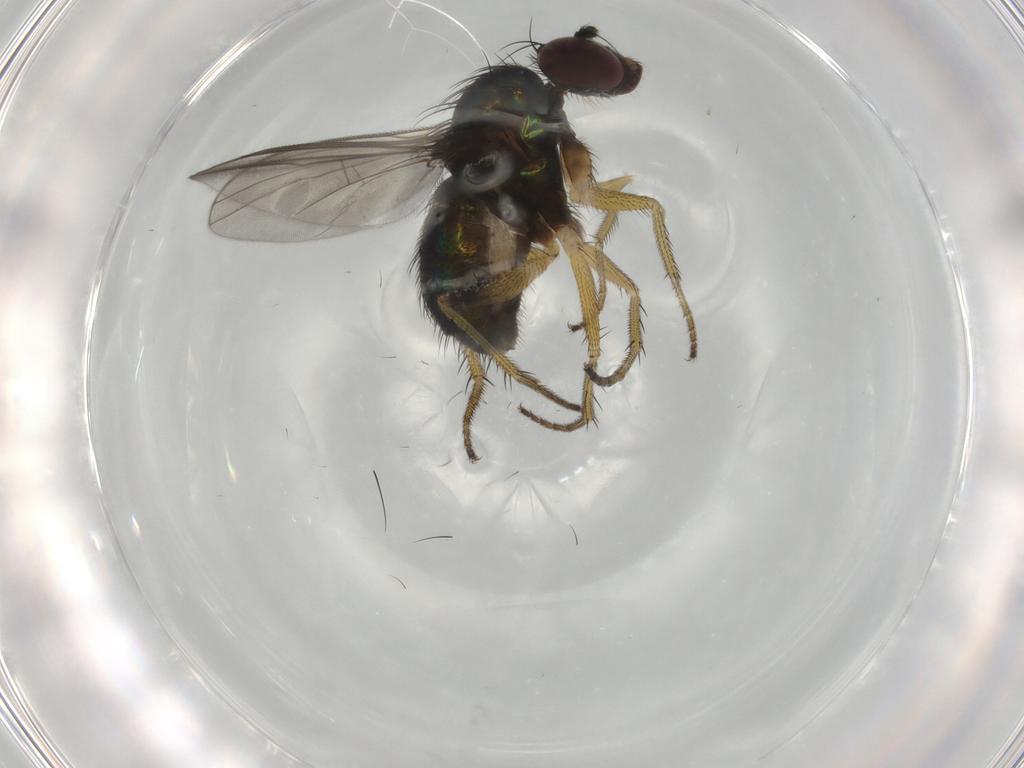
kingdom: Animalia
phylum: Arthropoda
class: Insecta
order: Diptera
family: Dolichopodidae
